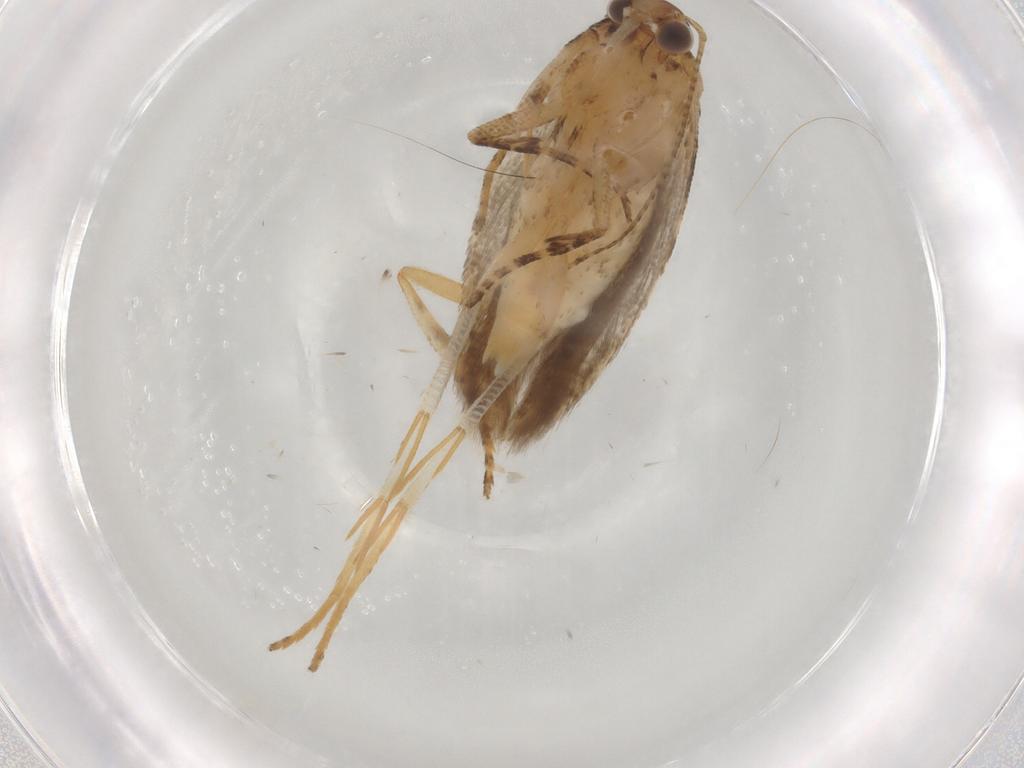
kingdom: Animalia
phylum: Arthropoda
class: Insecta
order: Lepidoptera
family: Gelechiidae
